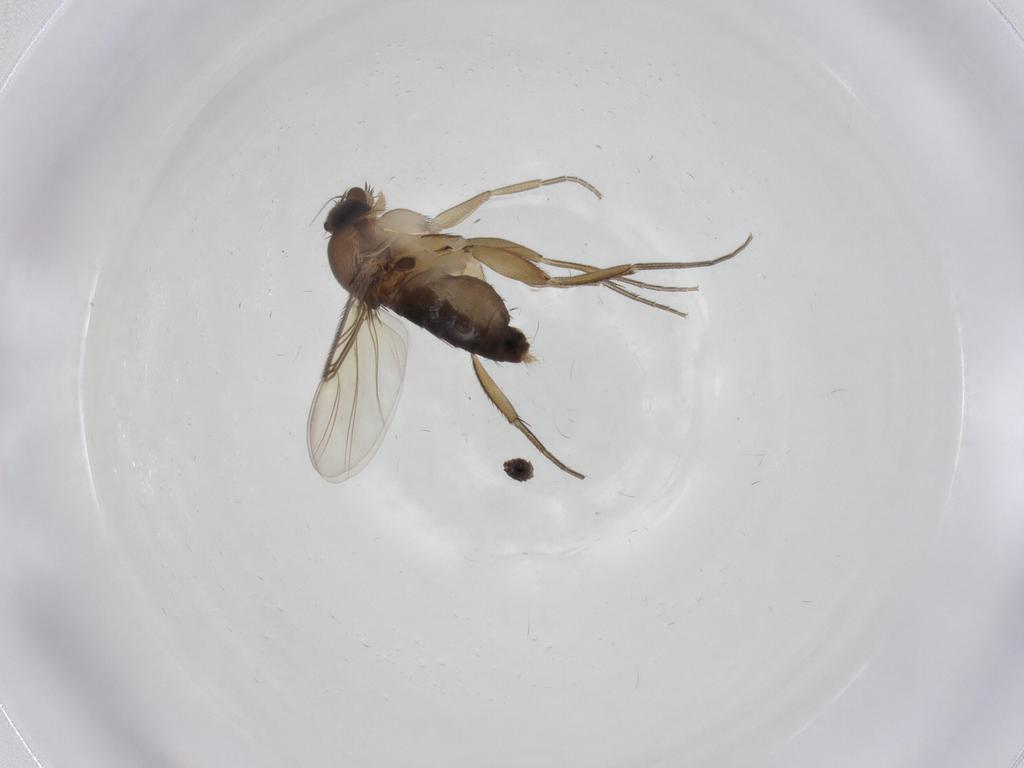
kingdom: Animalia
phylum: Arthropoda
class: Insecta
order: Diptera
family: Phoridae
